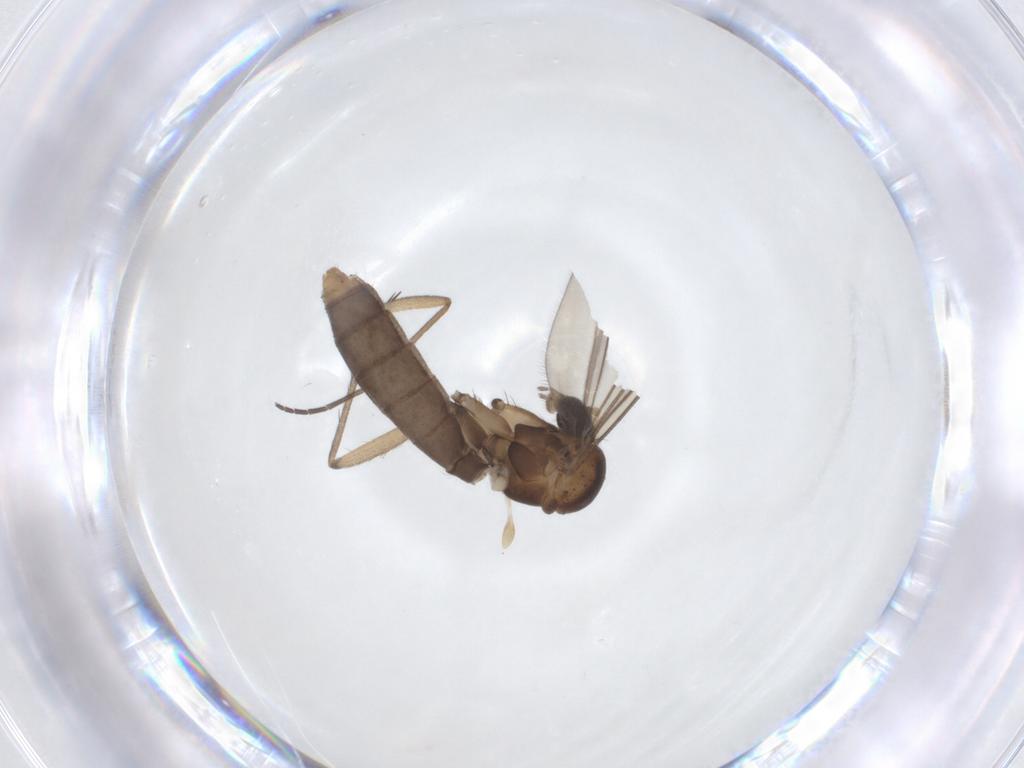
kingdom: Animalia
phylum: Arthropoda
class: Insecta
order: Diptera
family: Sciaridae
